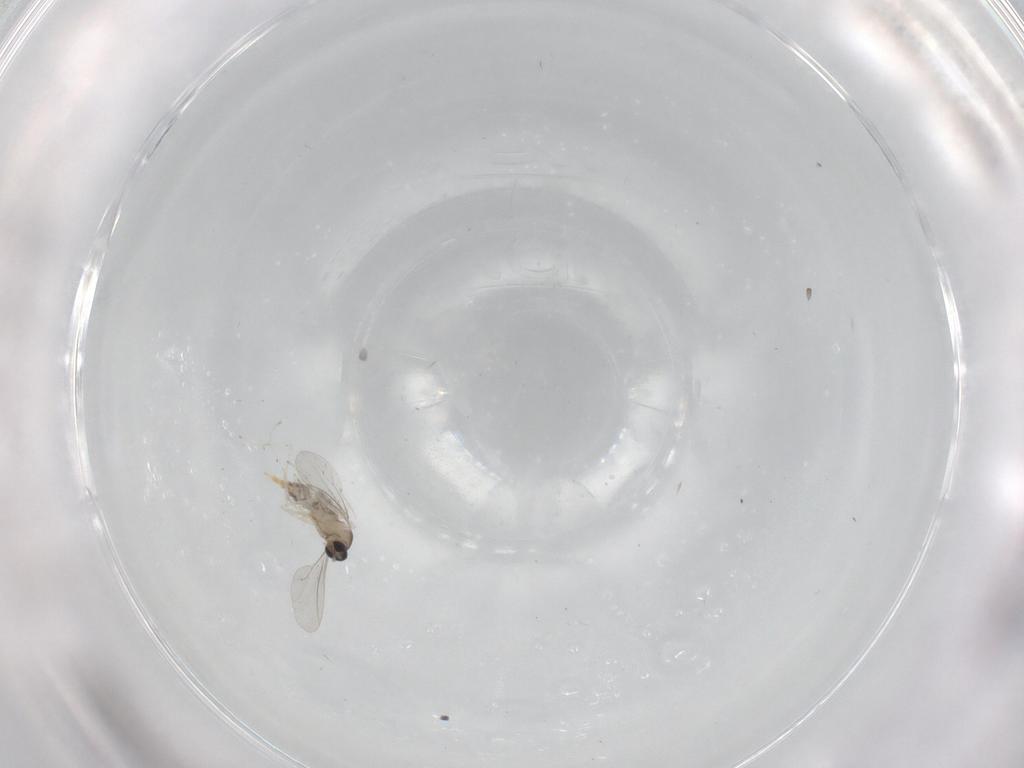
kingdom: Animalia
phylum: Arthropoda
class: Insecta
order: Diptera
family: Cecidomyiidae
